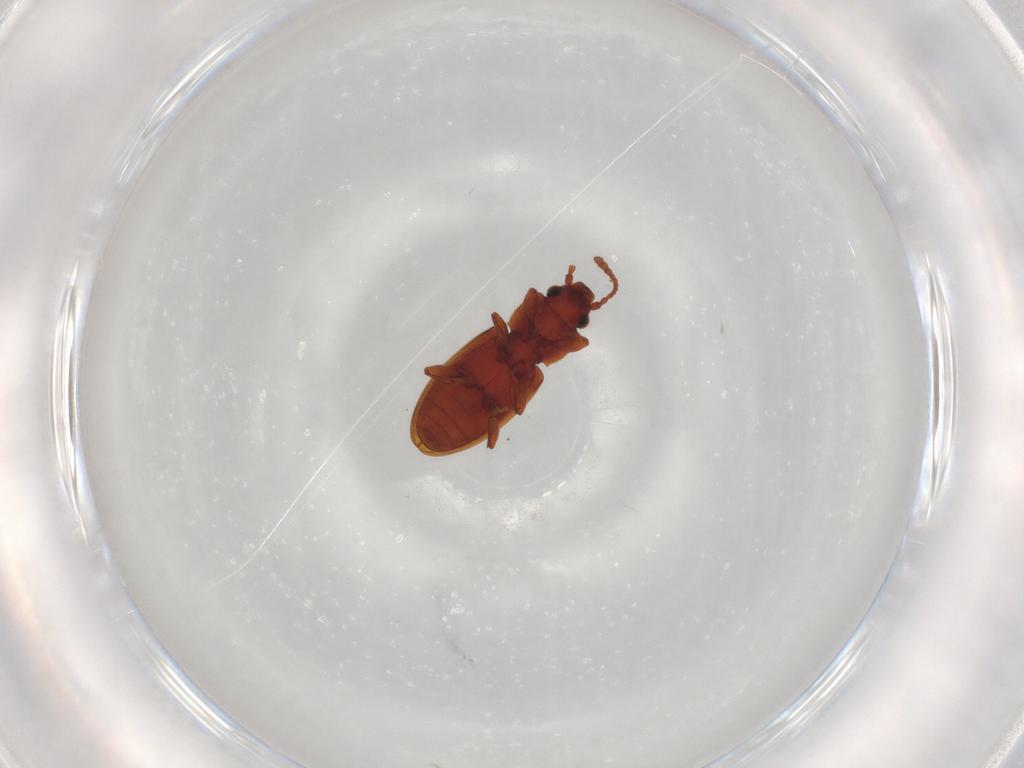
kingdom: Animalia
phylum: Arthropoda
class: Insecta
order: Coleoptera
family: Silvanidae
